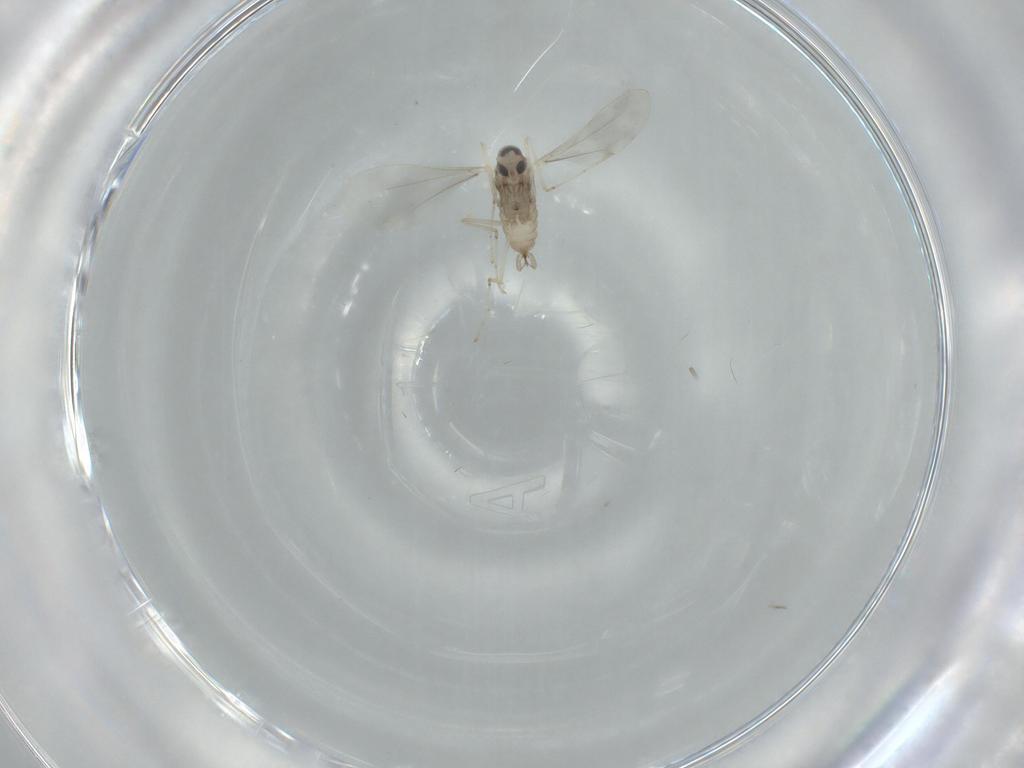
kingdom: Animalia
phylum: Arthropoda
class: Insecta
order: Diptera
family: Cecidomyiidae
